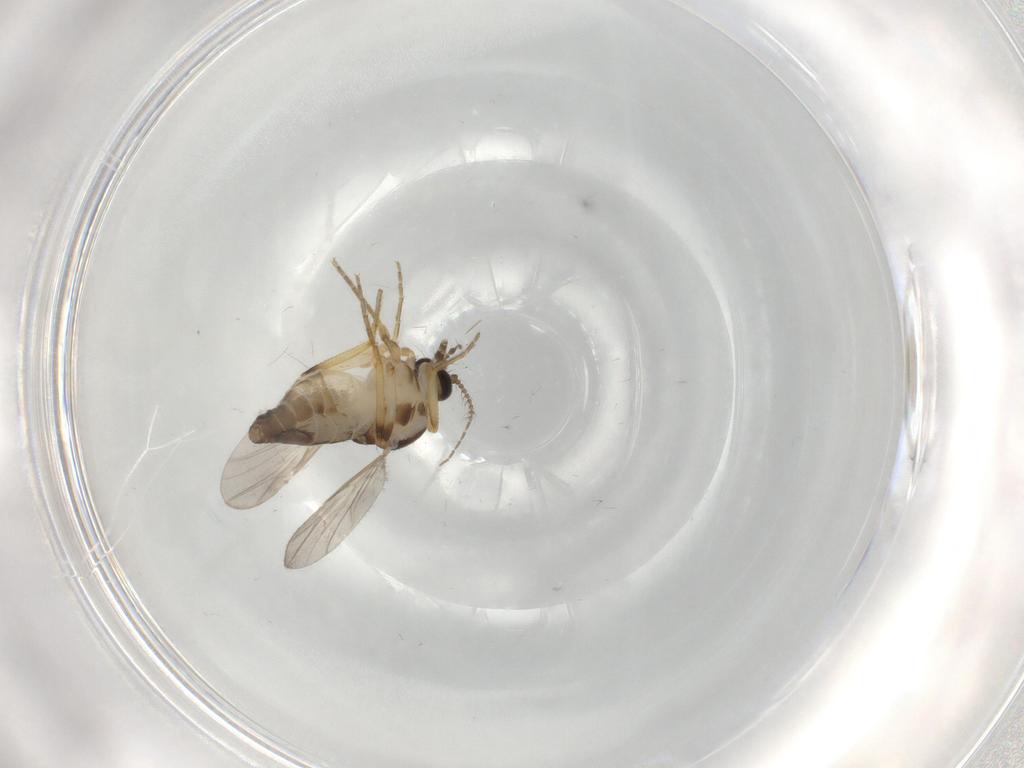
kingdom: Animalia
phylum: Arthropoda
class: Insecta
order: Diptera
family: Ceratopogonidae
